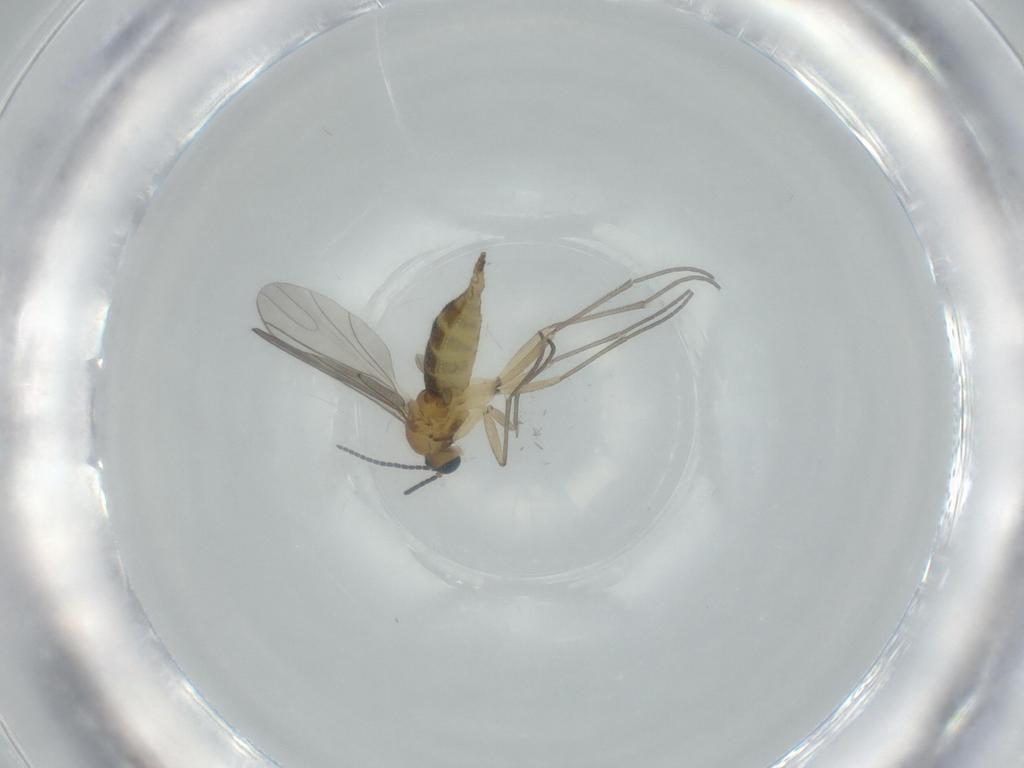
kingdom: Animalia
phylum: Arthropoda
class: Insecta
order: Diptera
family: Sciaridae
